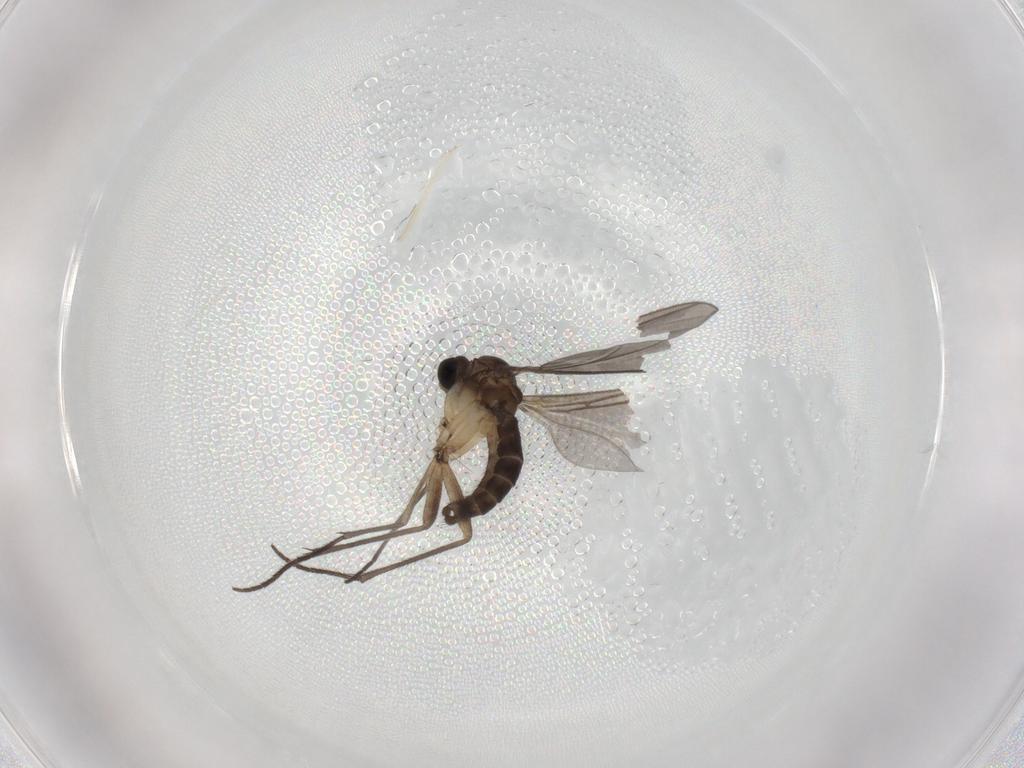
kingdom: Animalia
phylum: Arthropoda
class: Insecta
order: Diptera
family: Sciaridae
